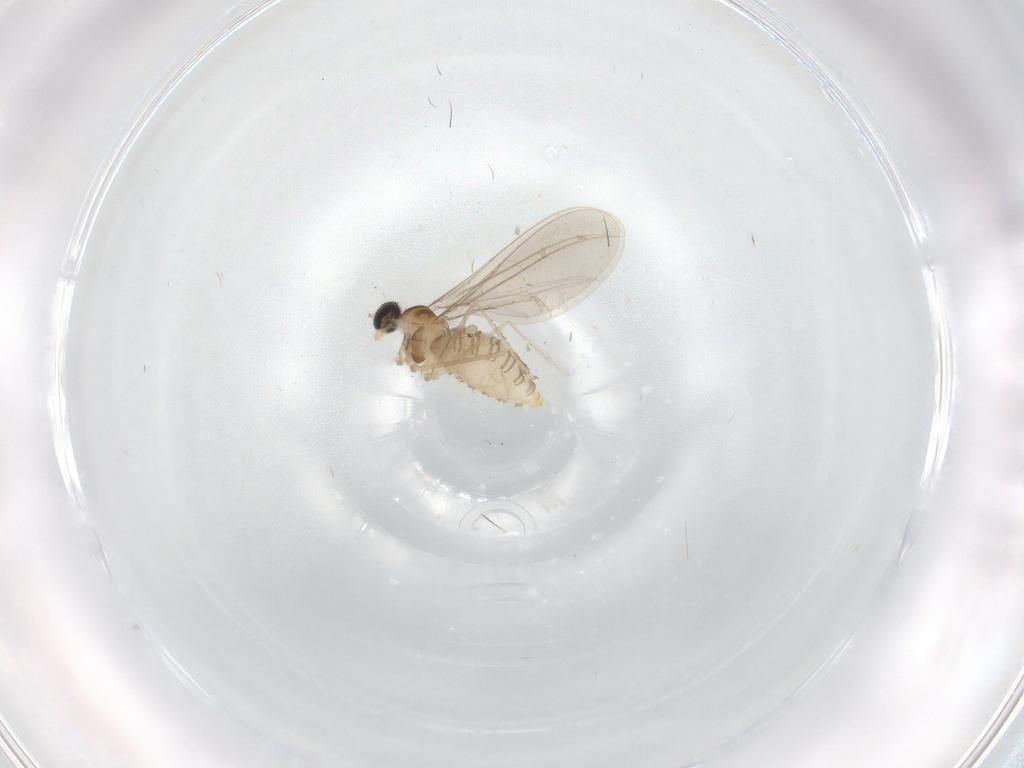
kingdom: Animalia
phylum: Arthropoda
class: Insecta
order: Diptera
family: Cecidomyiidae
